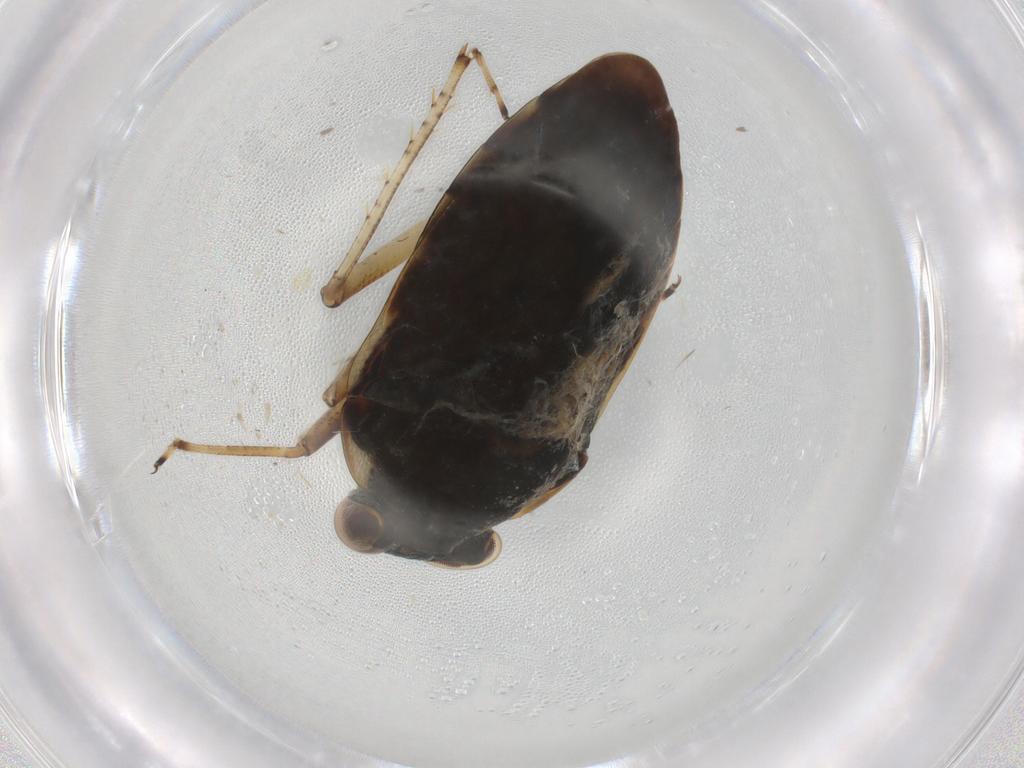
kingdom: Animalia
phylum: Arthropoda
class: Insecta
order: Hemiptera
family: Ochteridae
